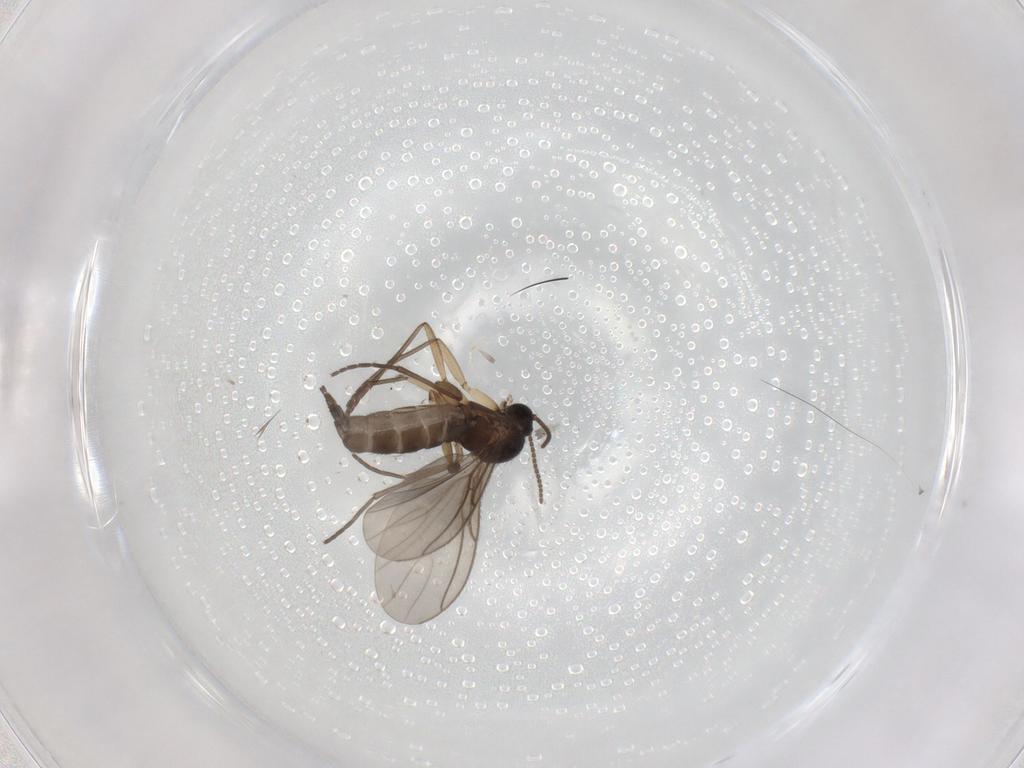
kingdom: Animalia
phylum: Arthropoda
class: Insecta
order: Diptera
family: Sciaridae
